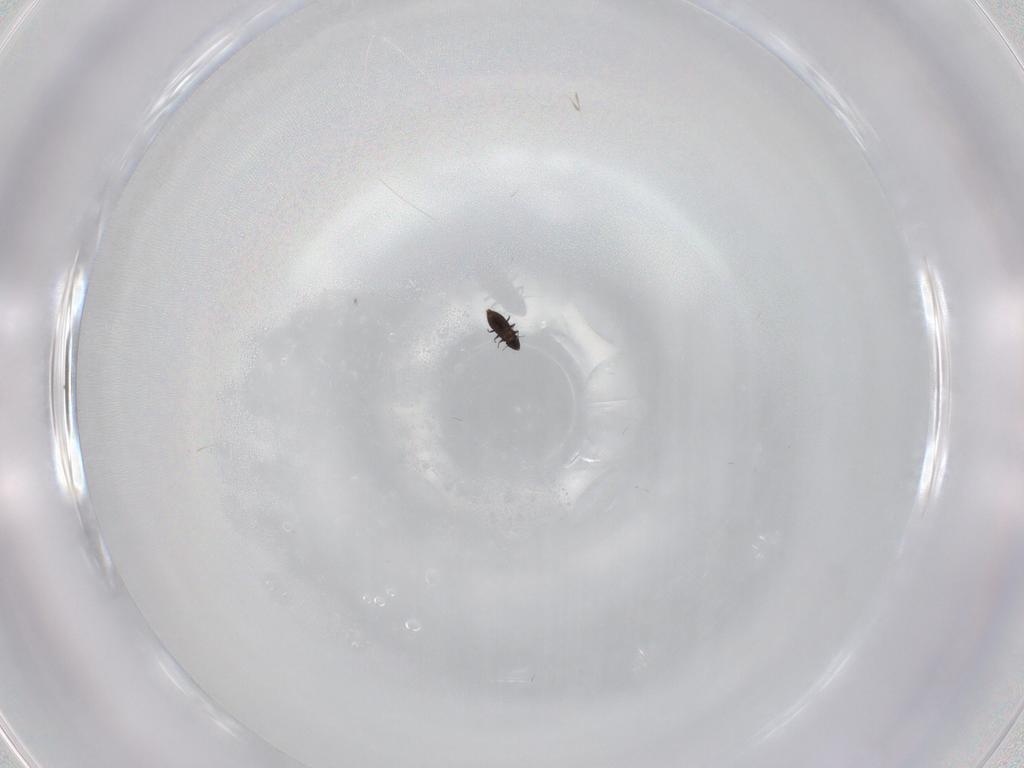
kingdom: Animalia
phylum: Arthropoda
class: Insecta
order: Coleoptera
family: Ripiphoridae
